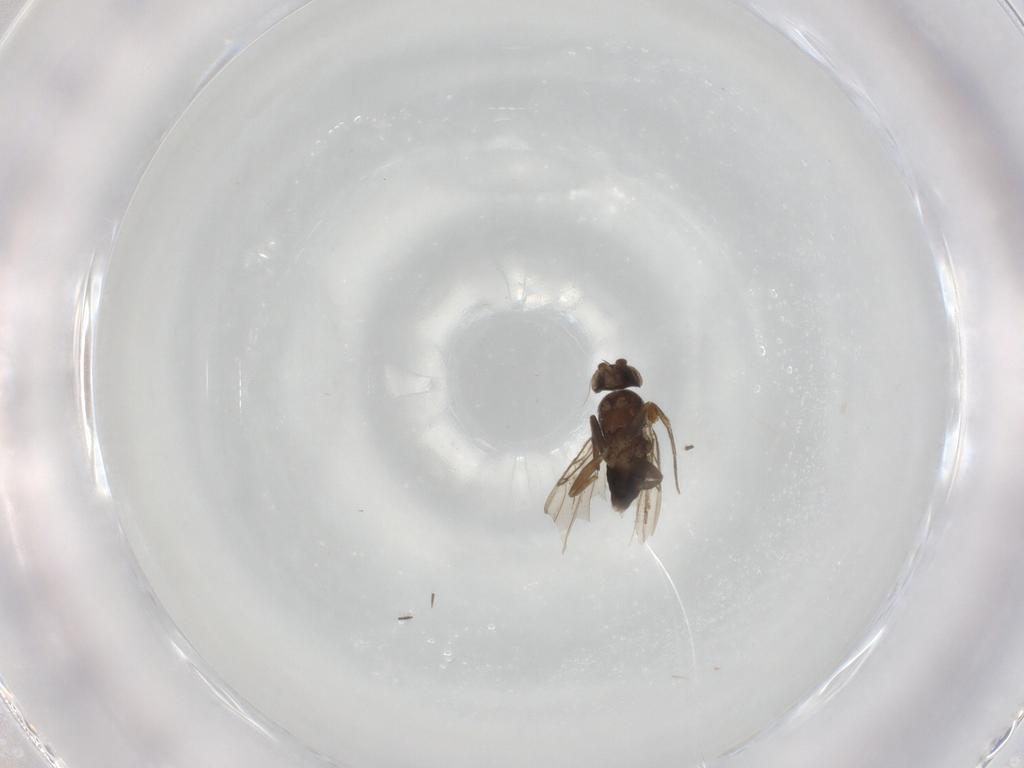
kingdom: Animalia
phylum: Arthropoda
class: Insecta
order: Diptera
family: Phoridae
